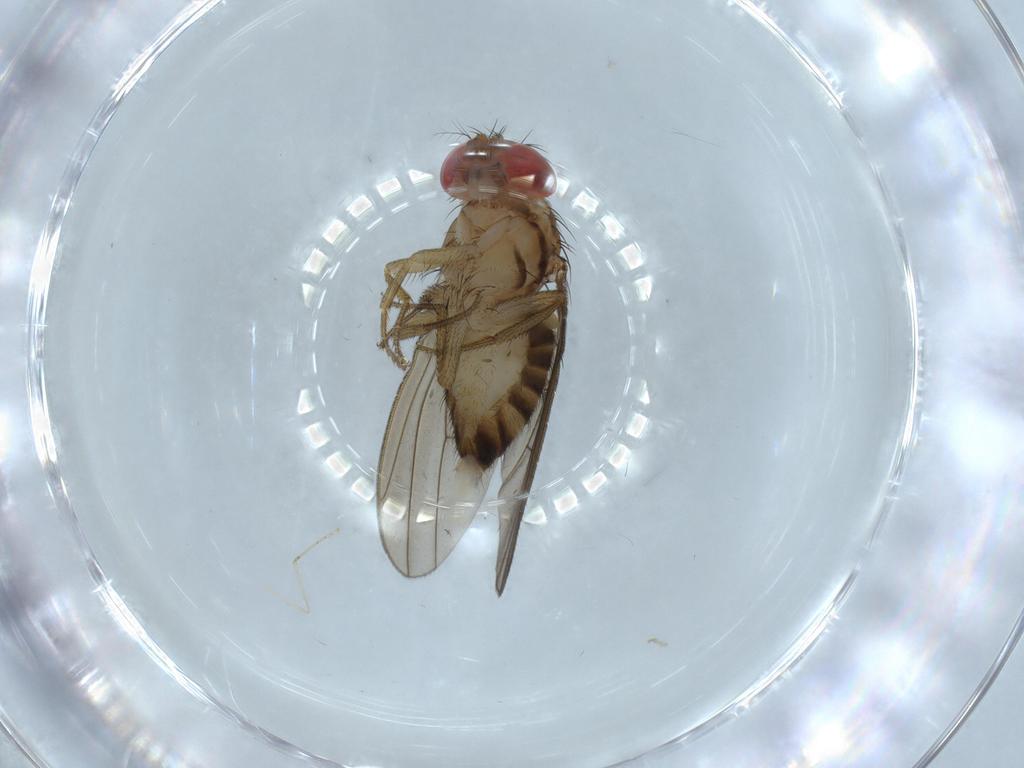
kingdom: Animalia
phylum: Arthropoda
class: Insecta
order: Diptera
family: Drosophilidae
